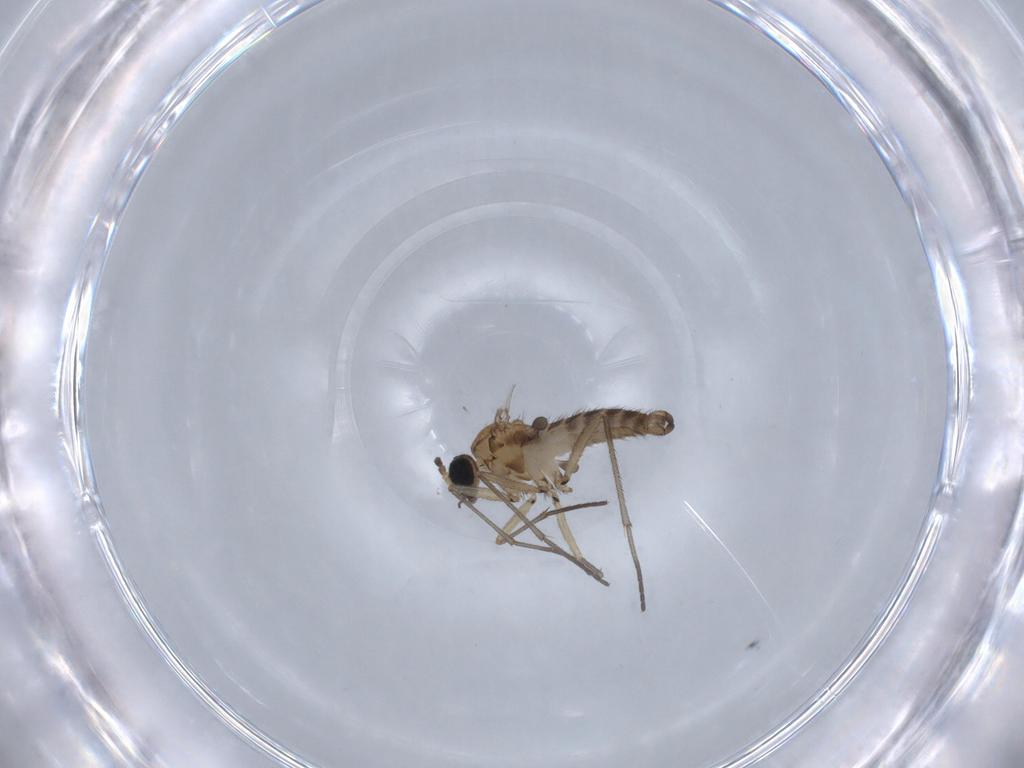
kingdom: Animalia
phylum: Arthropoda
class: Insecta
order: Diptera
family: Sciaridae
